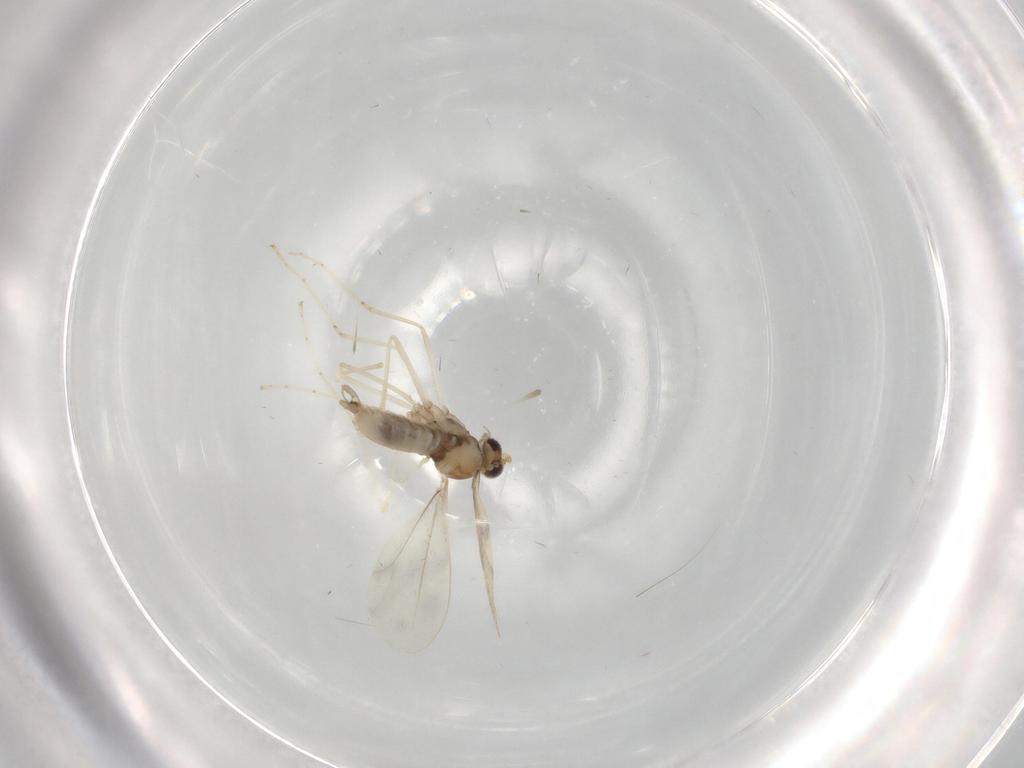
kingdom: Animalia
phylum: Arthropoda
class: Insecta
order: Diptera
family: Cecidomyiidae
